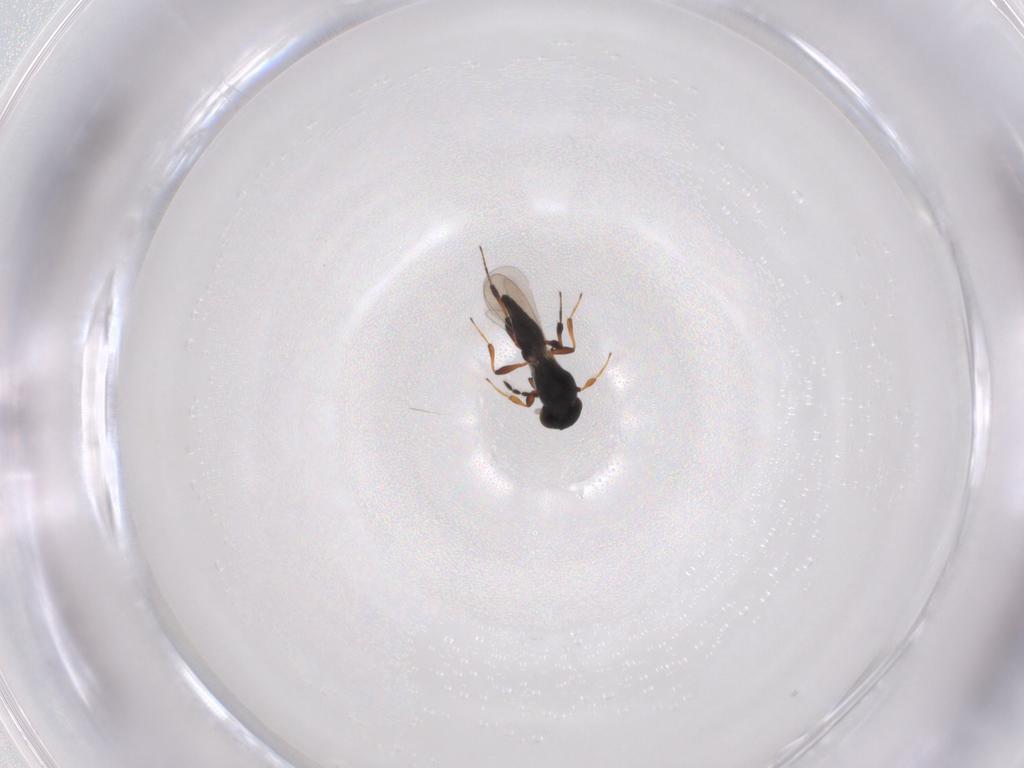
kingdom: Animalia
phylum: Arthropoda
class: Insecta
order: Hymenoptera
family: Platygastridae
